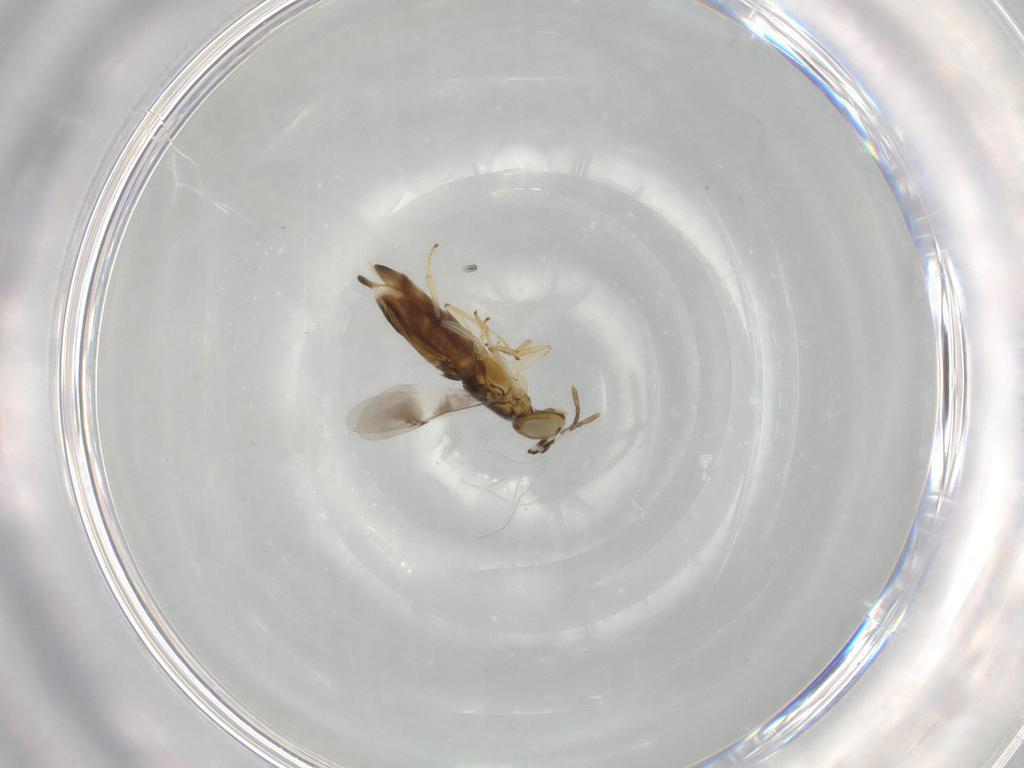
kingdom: Animalia
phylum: Arthropoda
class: Insecta
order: Hymenoptera
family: Encyrtidae
